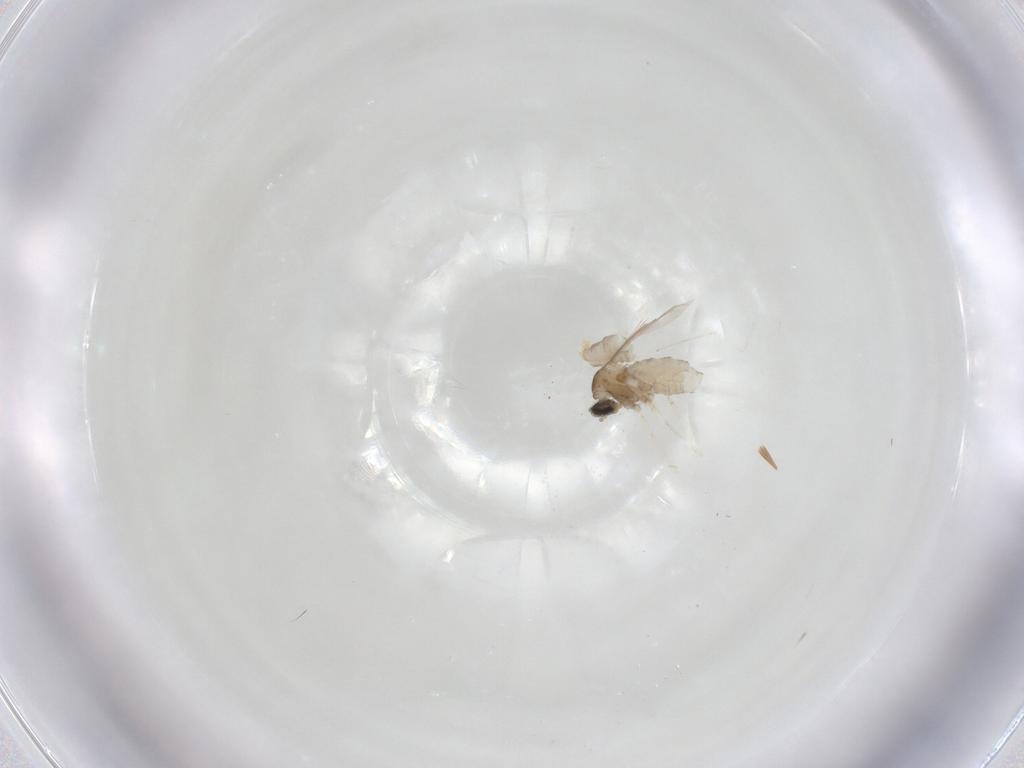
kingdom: Animalia
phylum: Arthropoda
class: Insecta
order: Diptera
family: Cecidomyiidae
